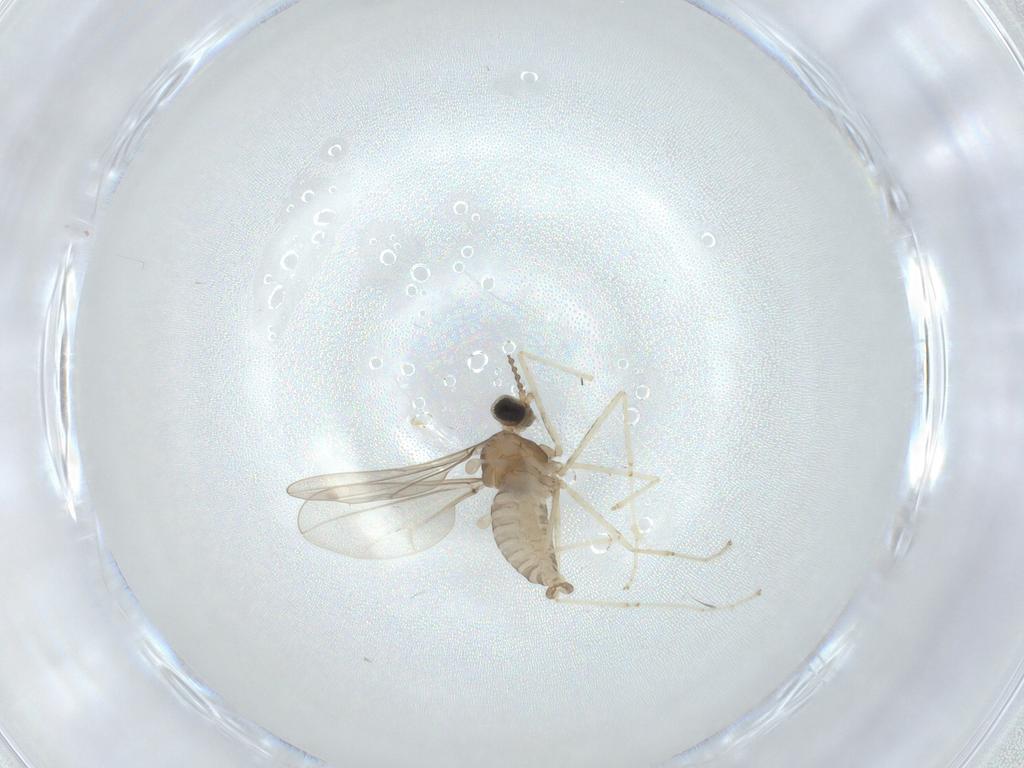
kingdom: Animalia
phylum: Arthropoda
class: Insecta
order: Diptera
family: Cecidomyiidae
